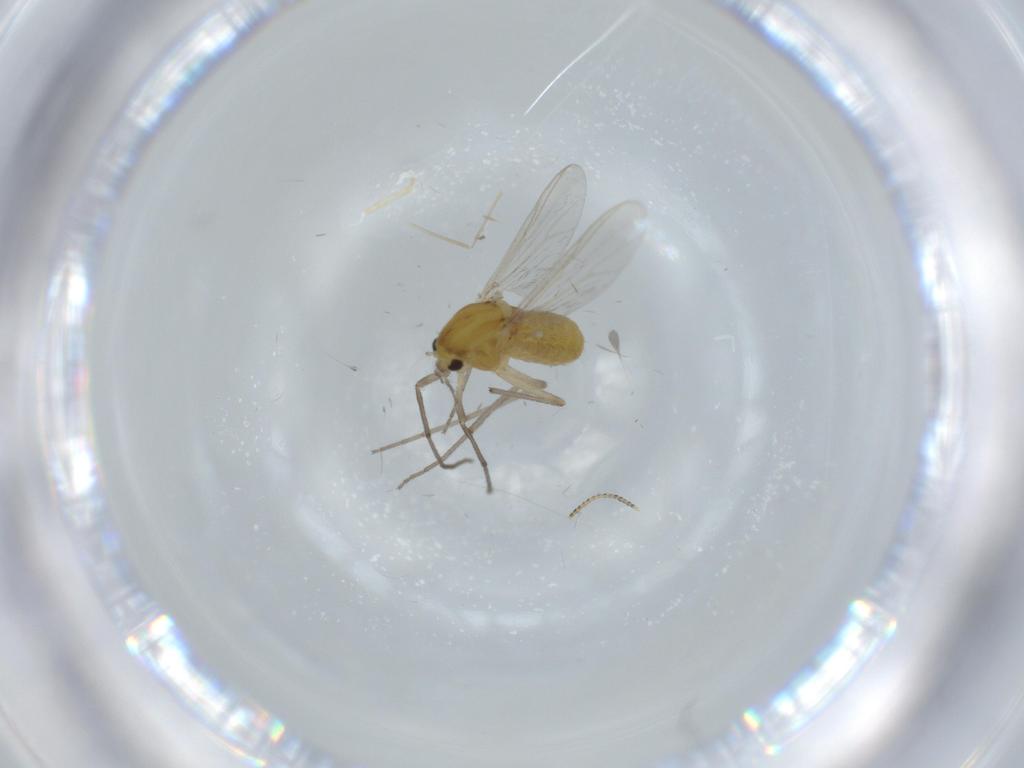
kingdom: Animalia
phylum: Arthropoda
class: Insecta
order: Diptera
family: Chironomidae
